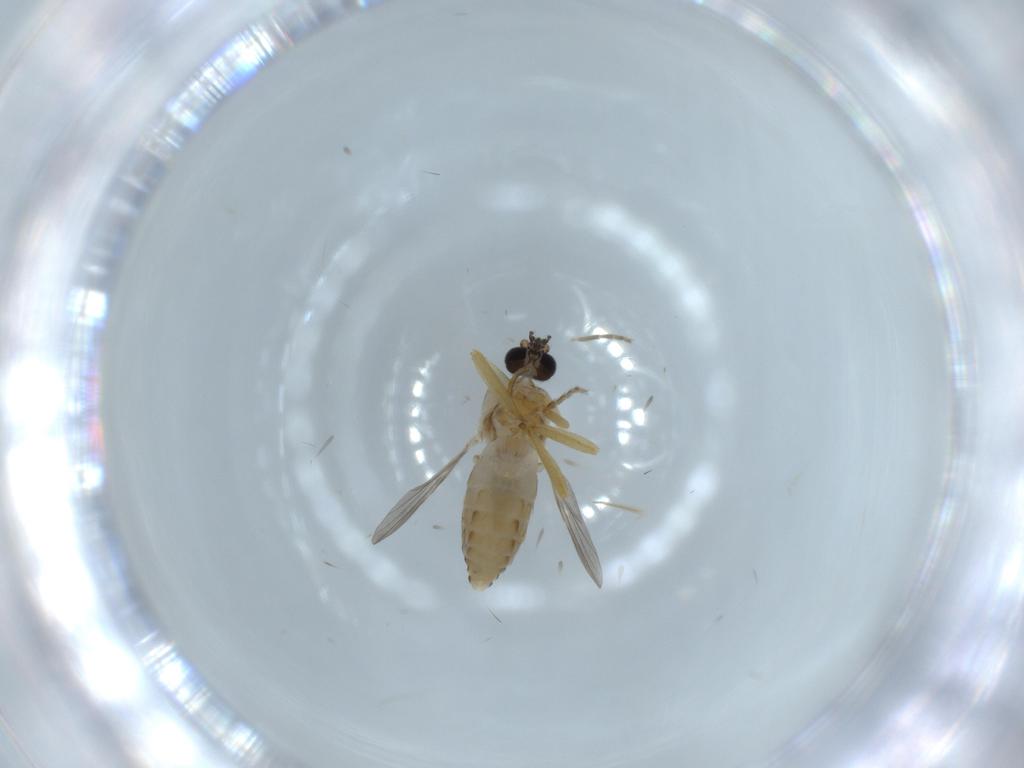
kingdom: Animalia
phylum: Arthropoda
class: Insecta
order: Diptera
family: Ceratopogonidae
